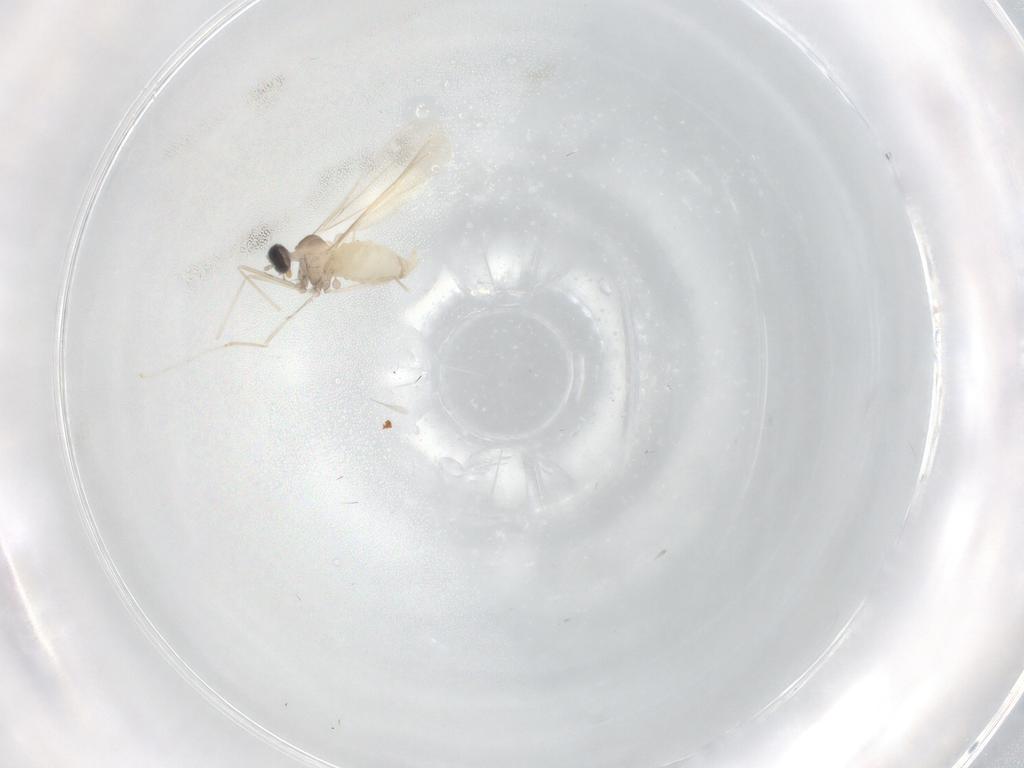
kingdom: Animalia
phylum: Arthropoda
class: Insecta
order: Diptera
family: Cecidomyiidae
